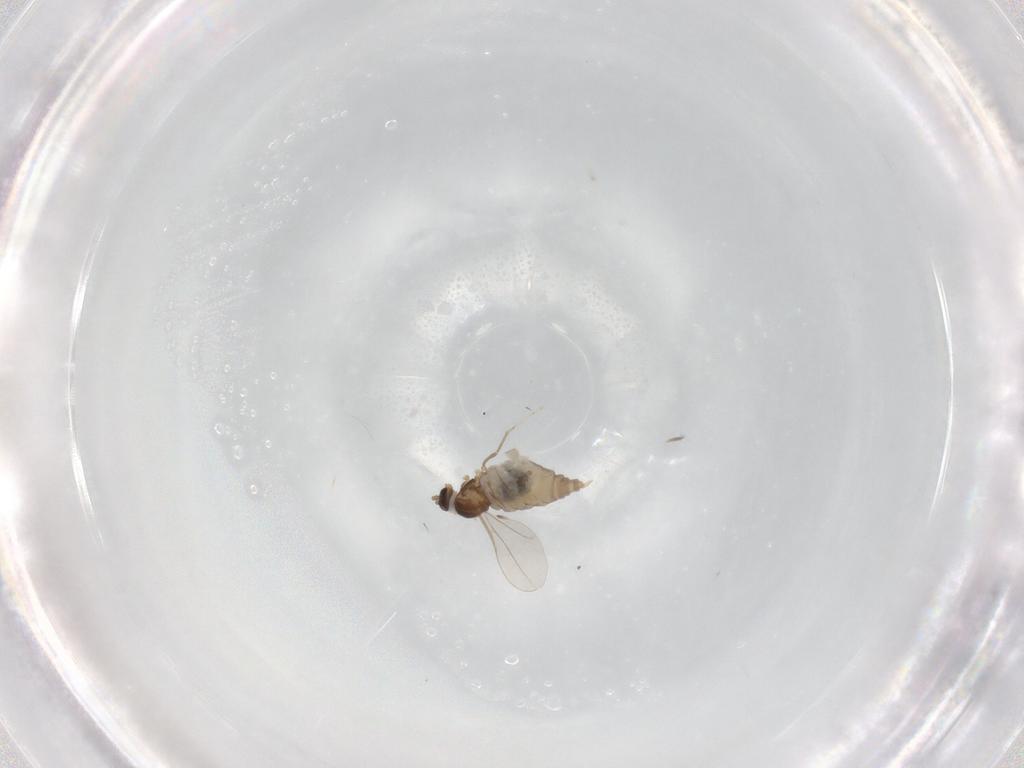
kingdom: Animalia
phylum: Arthropoda
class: Insecta
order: Diptera
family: Cecidomyiidae
